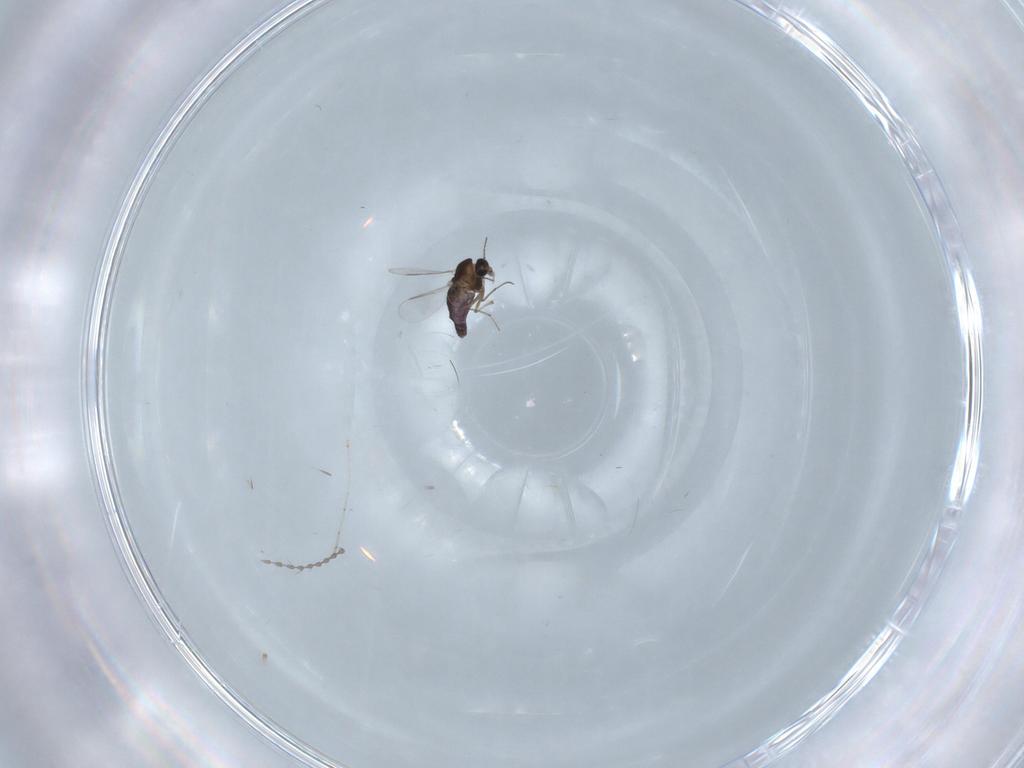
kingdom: Animalia
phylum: Arthropoda
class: Insecta
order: Diptera
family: Chironomidae
